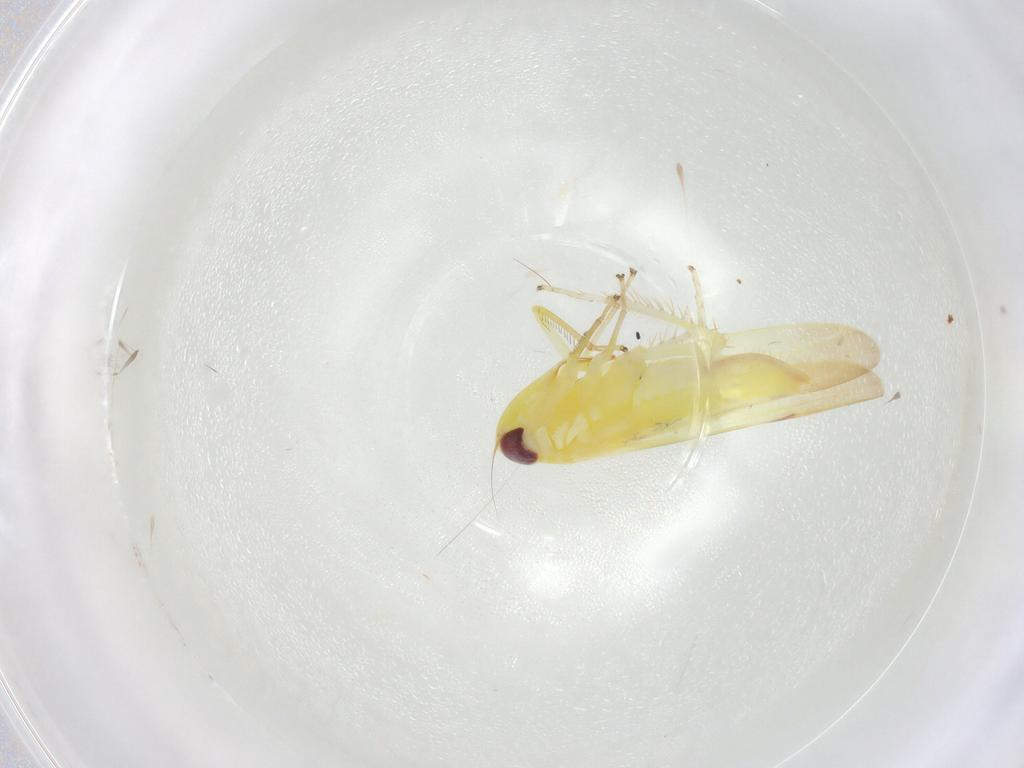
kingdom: Animalia
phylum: Arthropoda
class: Insecta
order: Hemiptera
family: Cicadellidae
